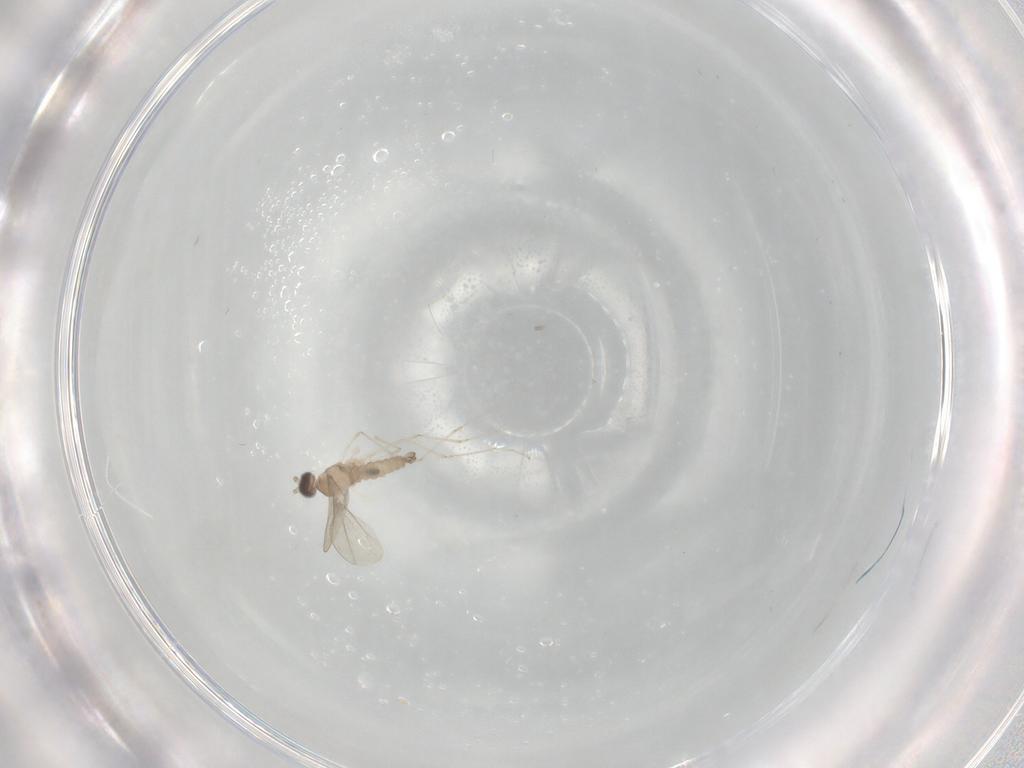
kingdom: Animalia
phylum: Arthropoda
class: Insecta
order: Diptera
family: Cecidomyiidae
